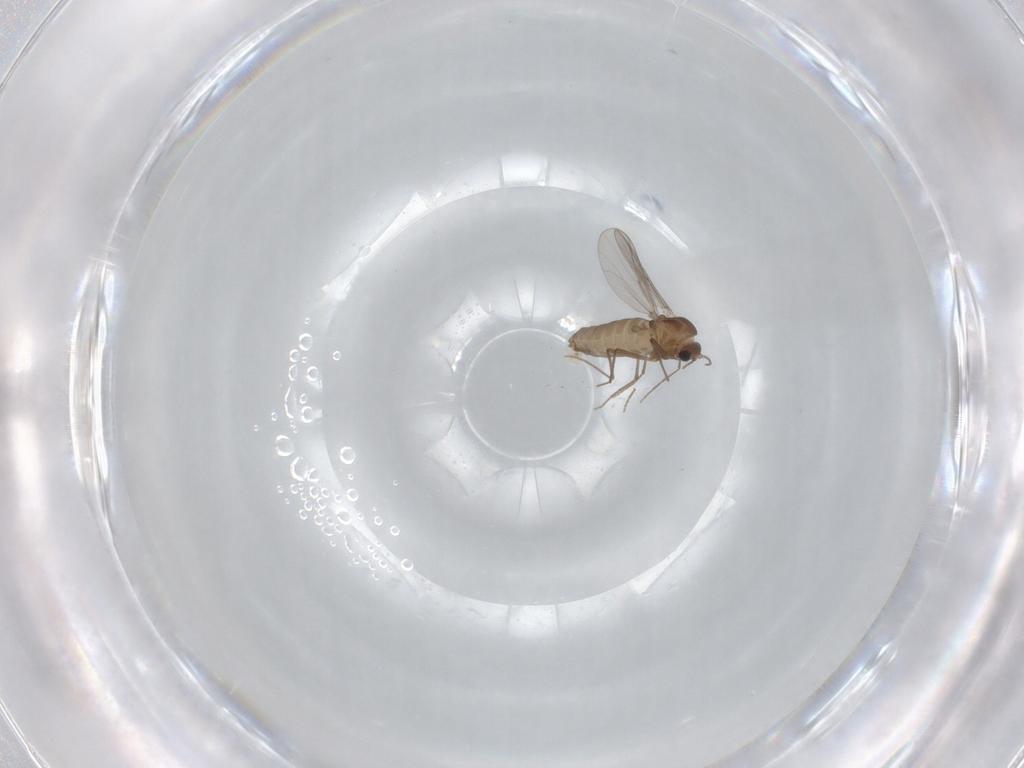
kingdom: Animalia
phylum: Arthropoda
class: Insecta
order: Diptera
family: Chironomidae
